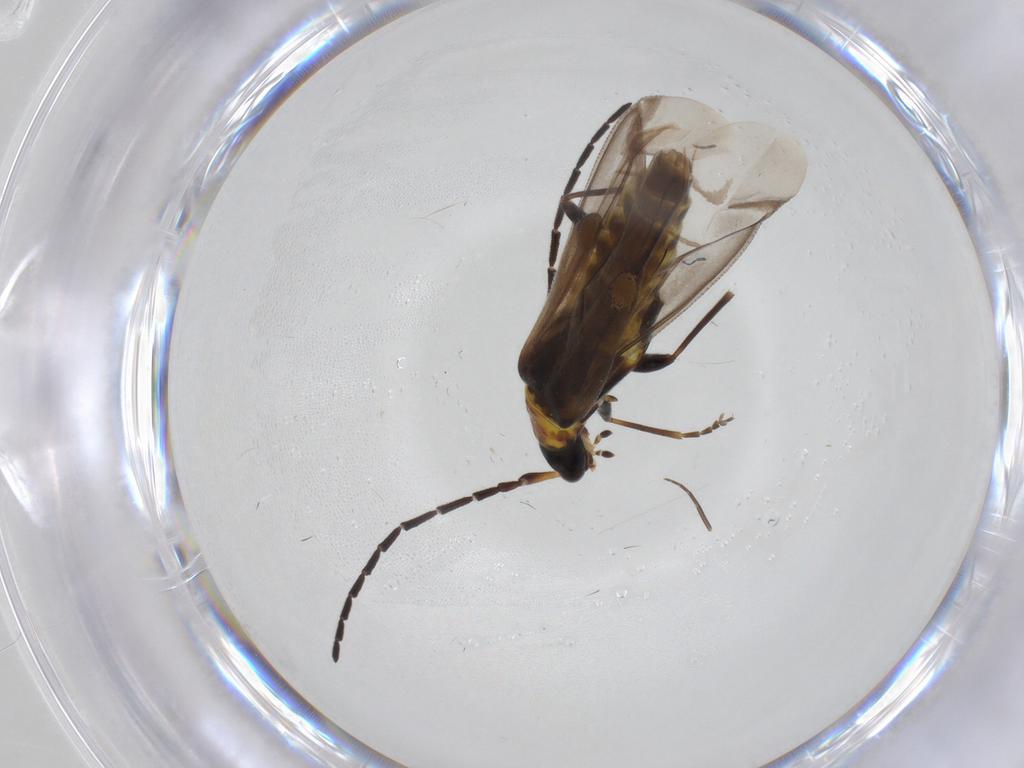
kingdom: Animalia
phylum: Arthropoda
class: Insecta
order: Coleoptera
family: Cantharidae
